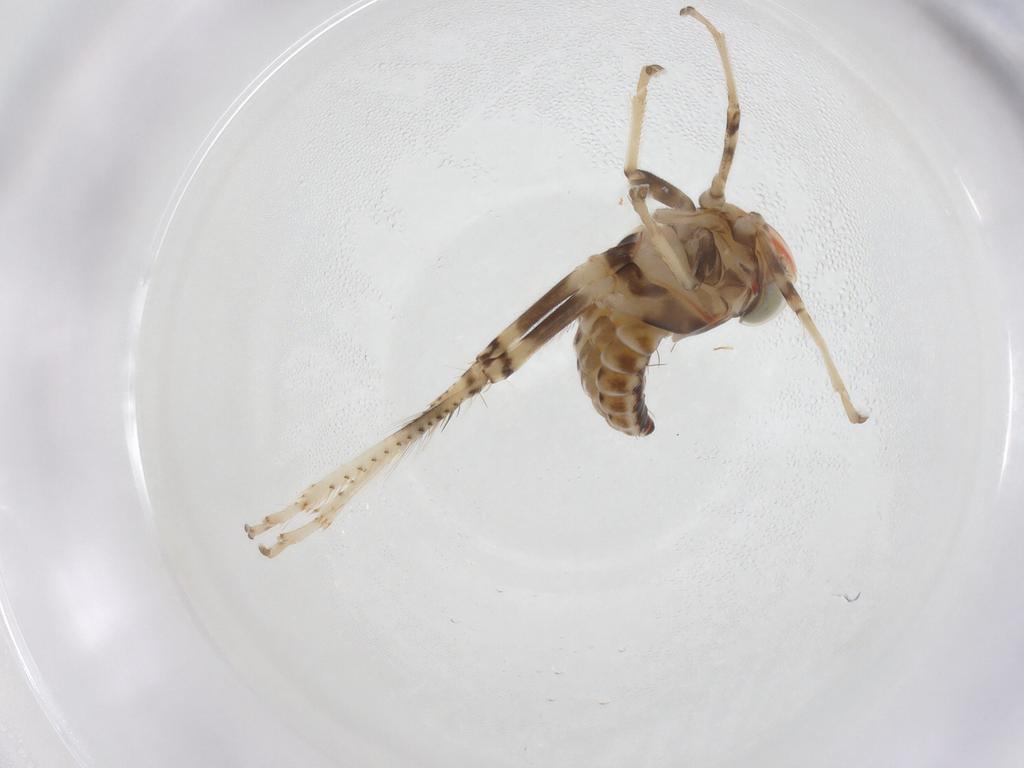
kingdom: Animalia
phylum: Arthropoda
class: Insecta
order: Hemiptera
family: Cicadellidae
